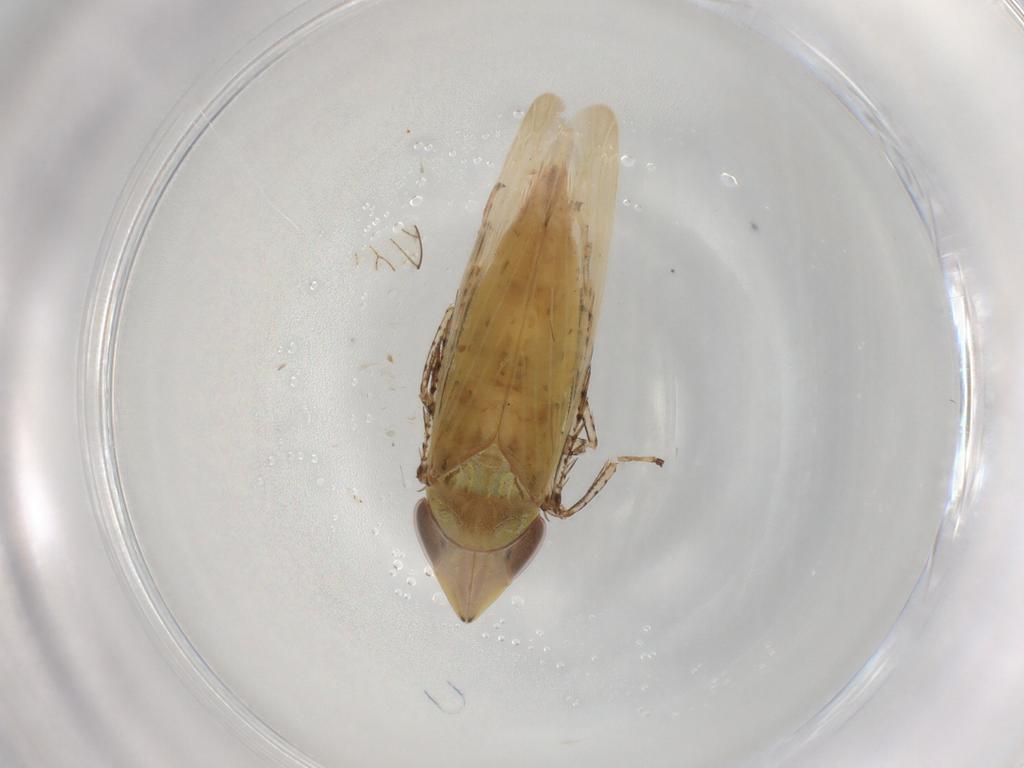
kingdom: Animalia
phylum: Arthropoda
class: Insecta
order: Hemiptera
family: Cicadellidae
